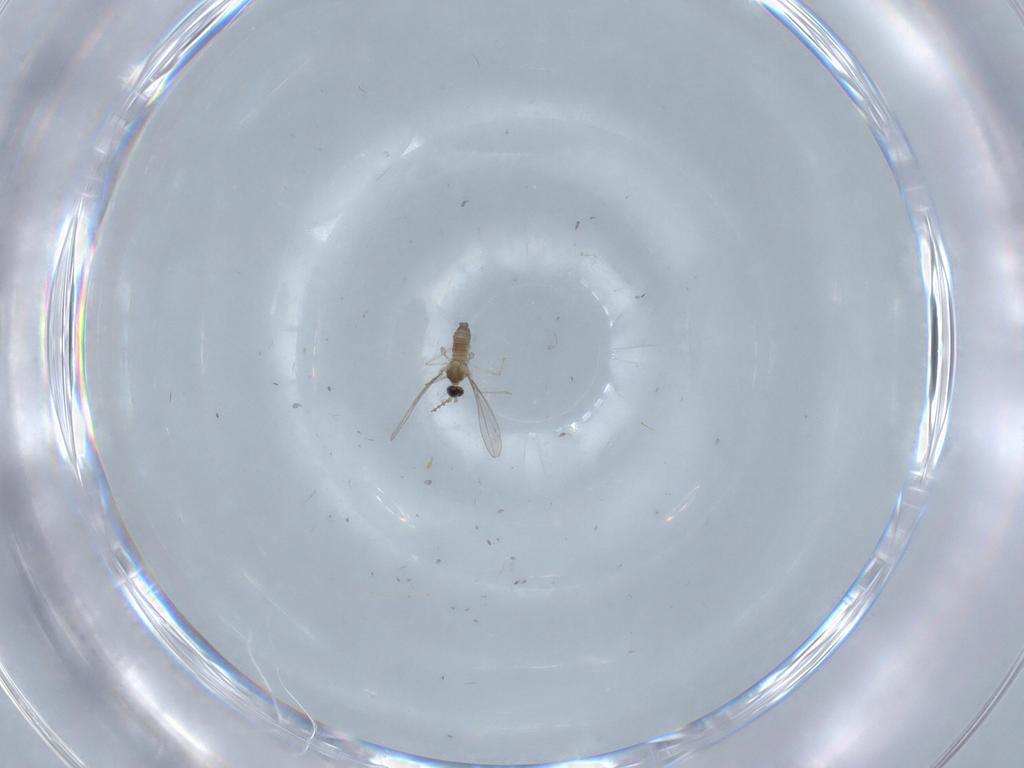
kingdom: Animalia
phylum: Arthropoda
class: Insecta
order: Diptera
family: Cecidomyiidae
